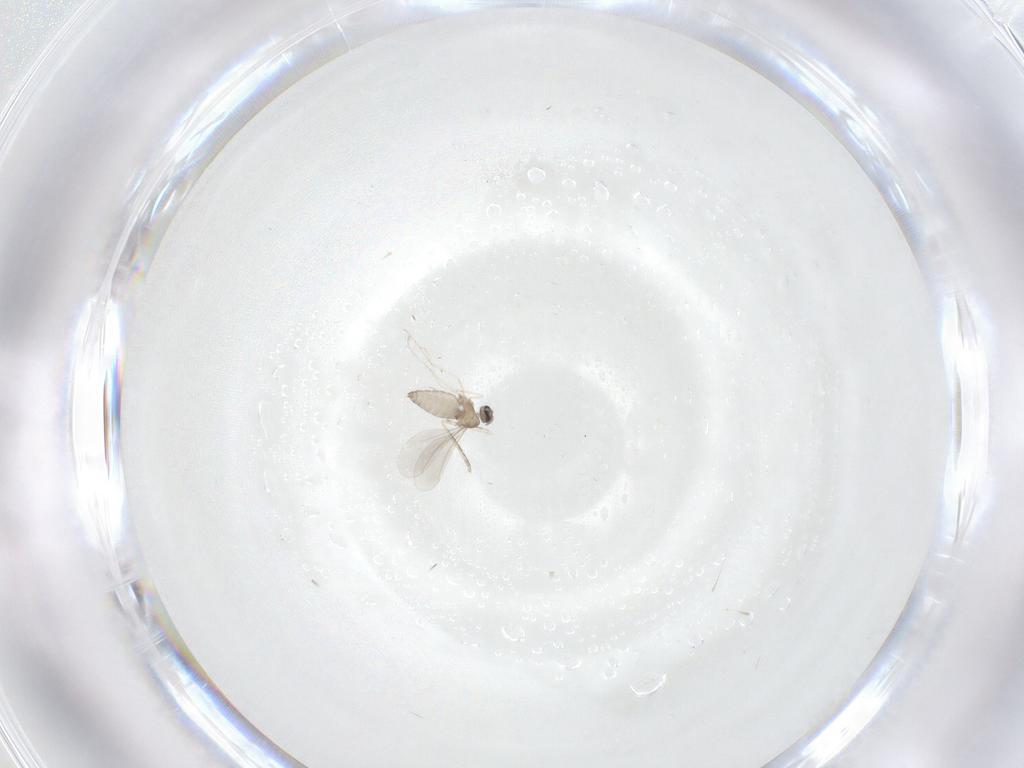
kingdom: Animalia
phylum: Arthropoda
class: Insecta
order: Diptera
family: Cecidomyiidae
